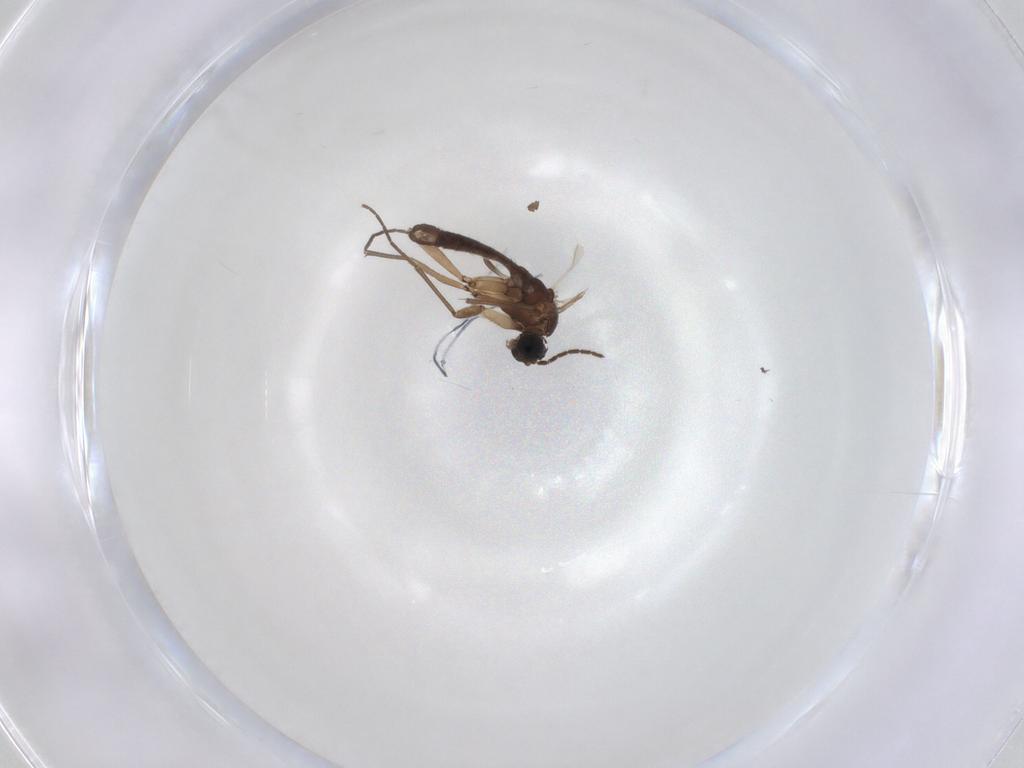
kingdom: Animalia
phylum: Arthropoda
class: Insecta
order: Diptera
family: Sciaridae
